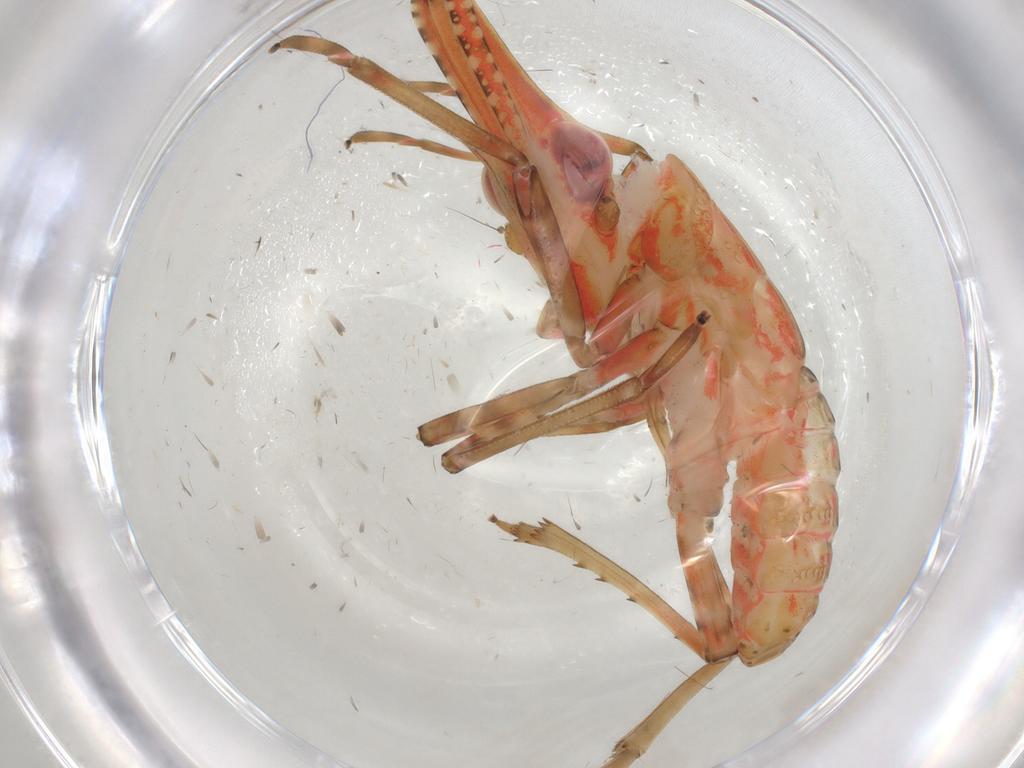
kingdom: Animalia
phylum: Arthropoda
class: Insecta
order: Hemiptera
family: Fulgoroidea_incertae_sedis
